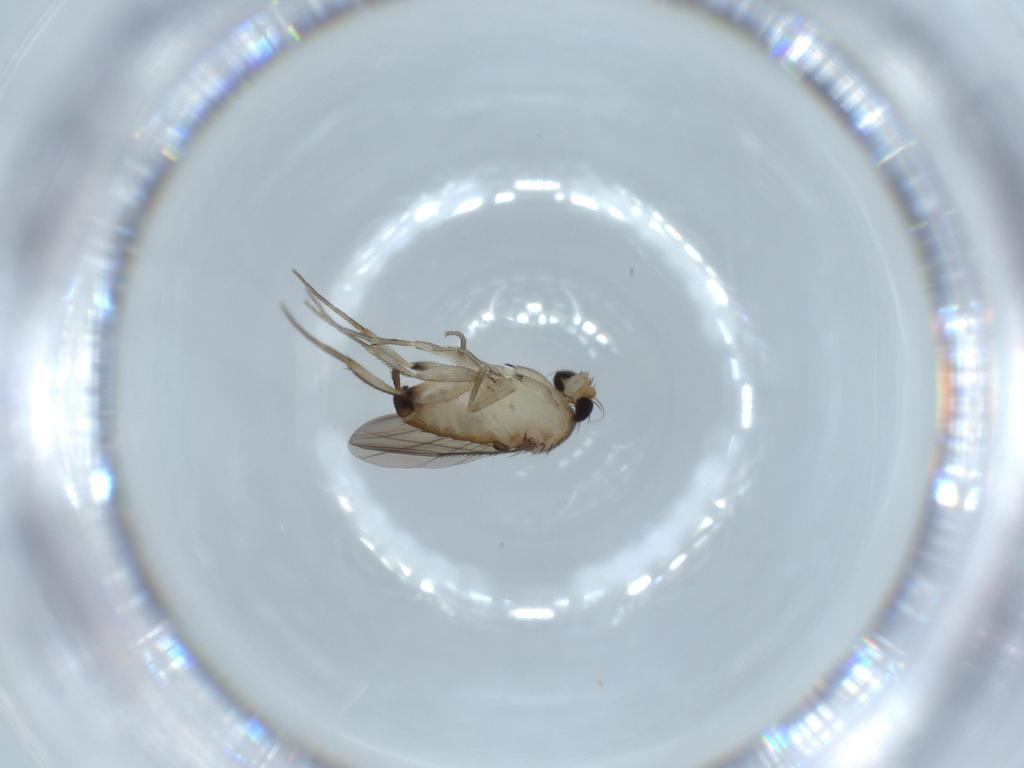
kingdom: Animalia
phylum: Arthropoda
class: Insecta
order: Diptera
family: Phoridae
